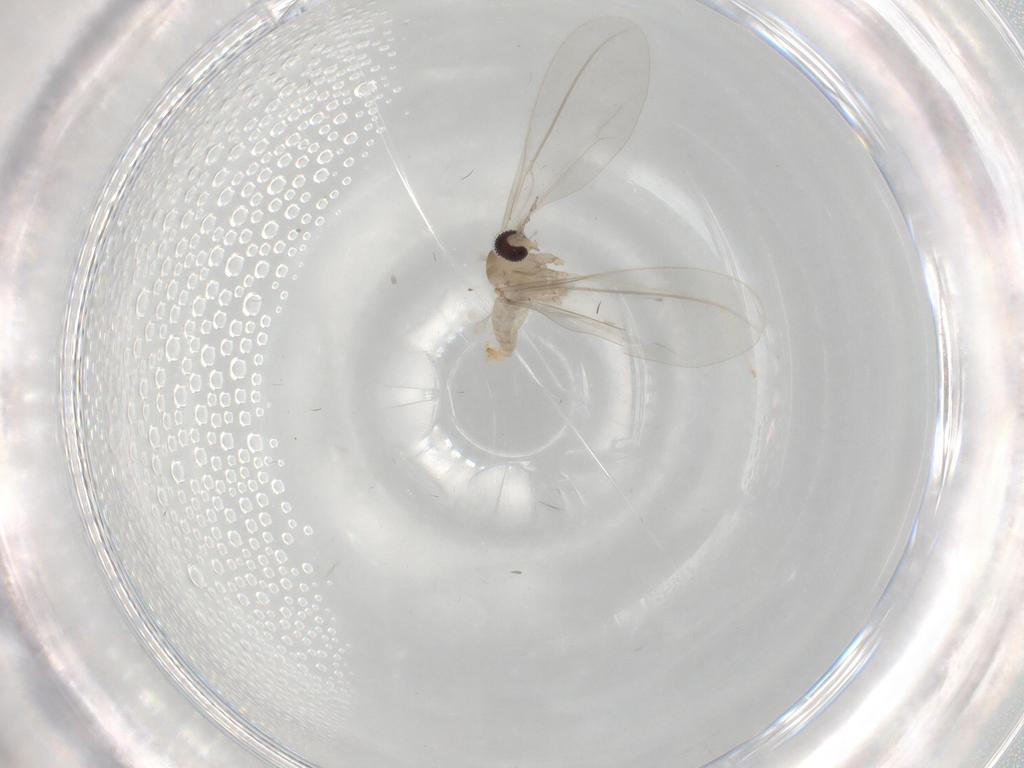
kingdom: Animalia
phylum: Arthropoda
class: Insecta
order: Diptera
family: Cecidomyiidae
